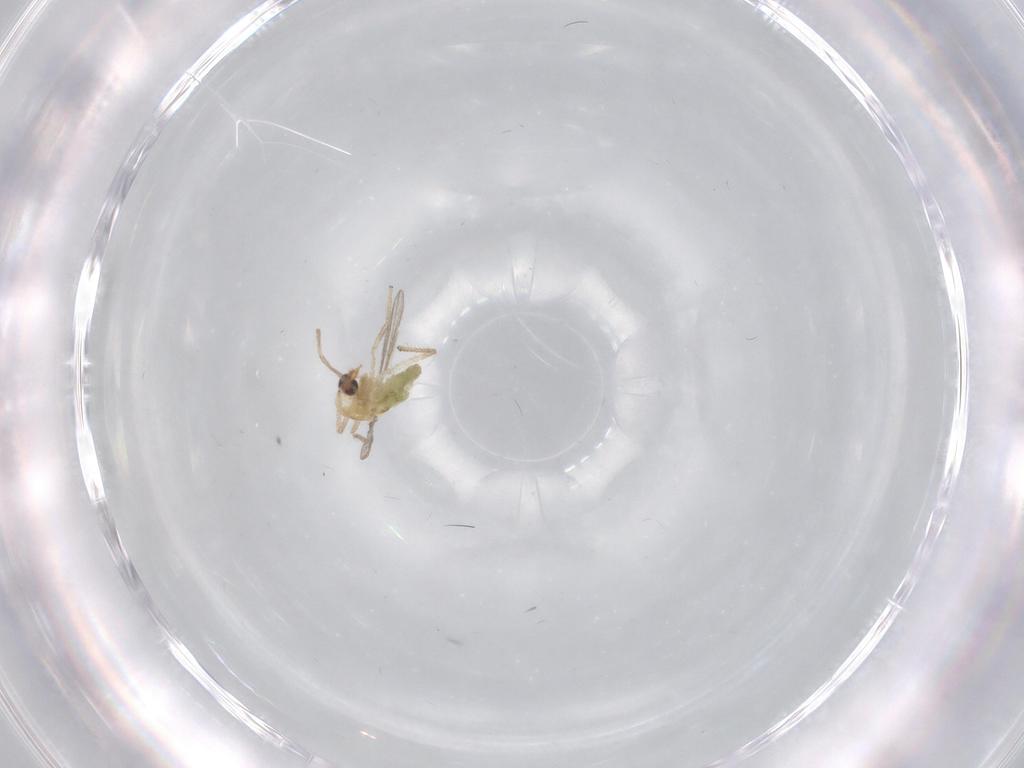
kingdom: Animalia
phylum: Arthropoda
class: Insecta
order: Diptera
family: Chironomidae
